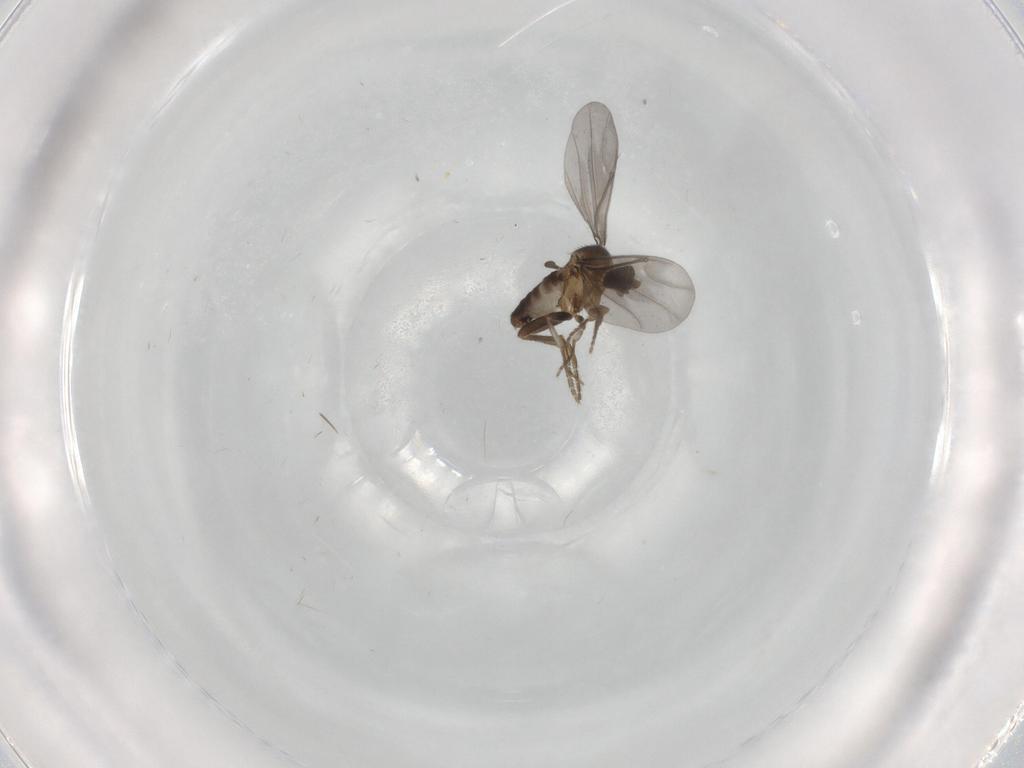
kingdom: Animalia
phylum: Arthropoda
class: Insecta
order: Diptera
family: Phoridae
